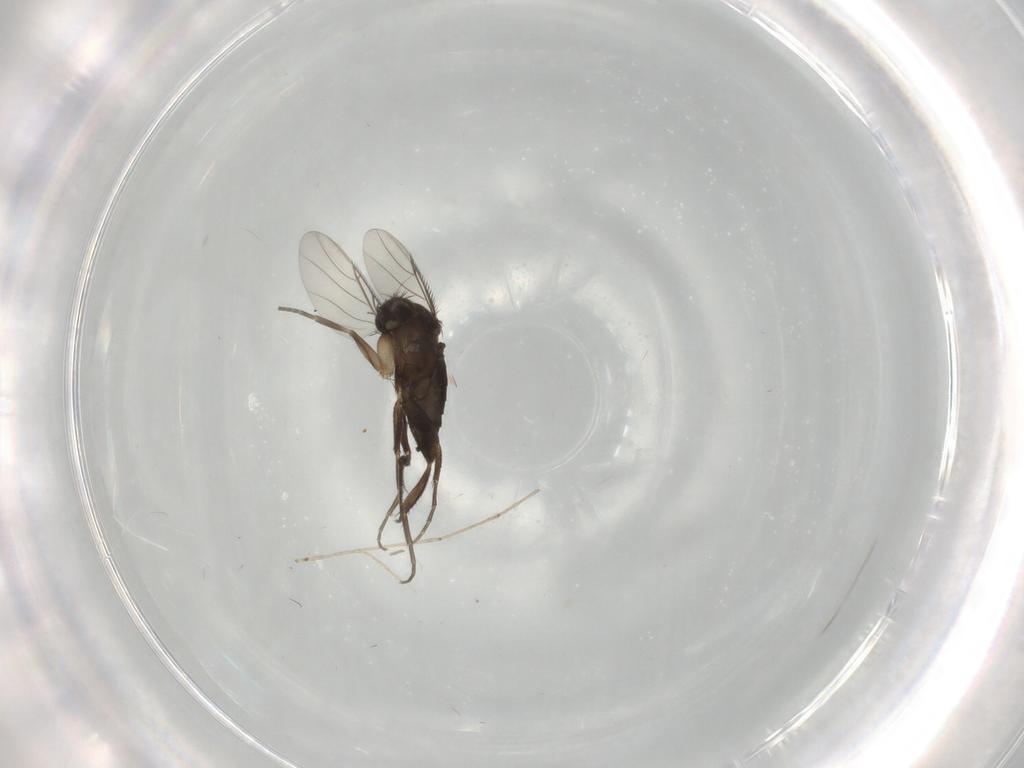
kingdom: Animalia
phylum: Arthropoda
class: Insecta
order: Diptera
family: Phoridae
